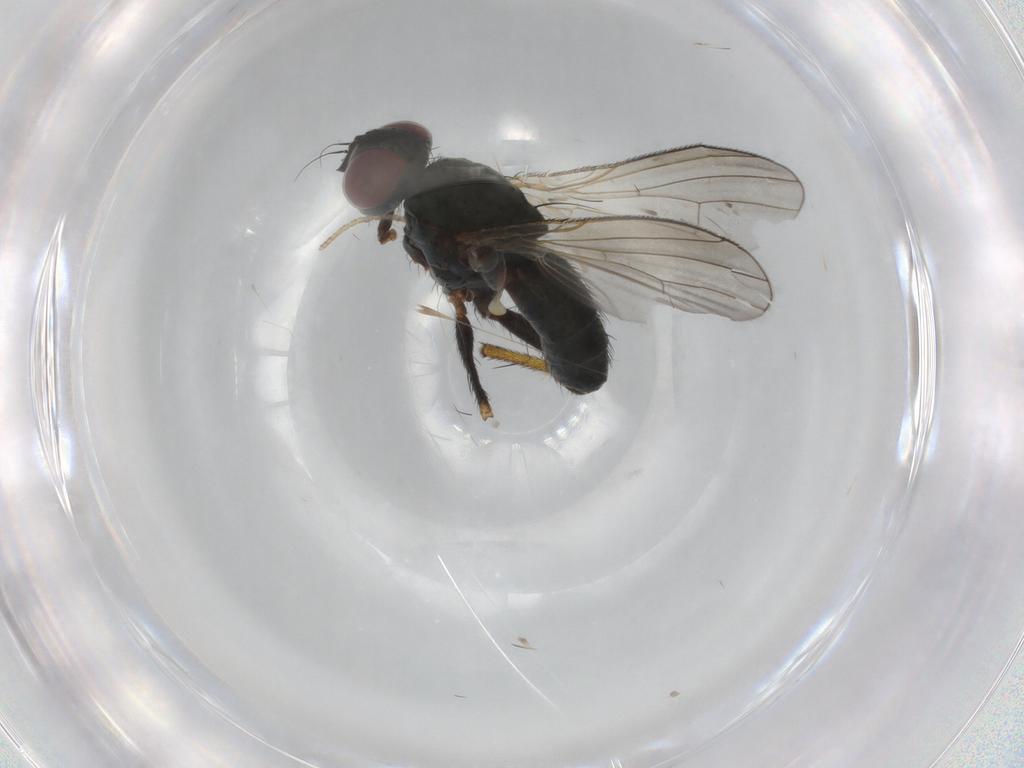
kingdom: Animalia
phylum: Arthropoda
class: Insecta
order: Diptera
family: Muscidae
